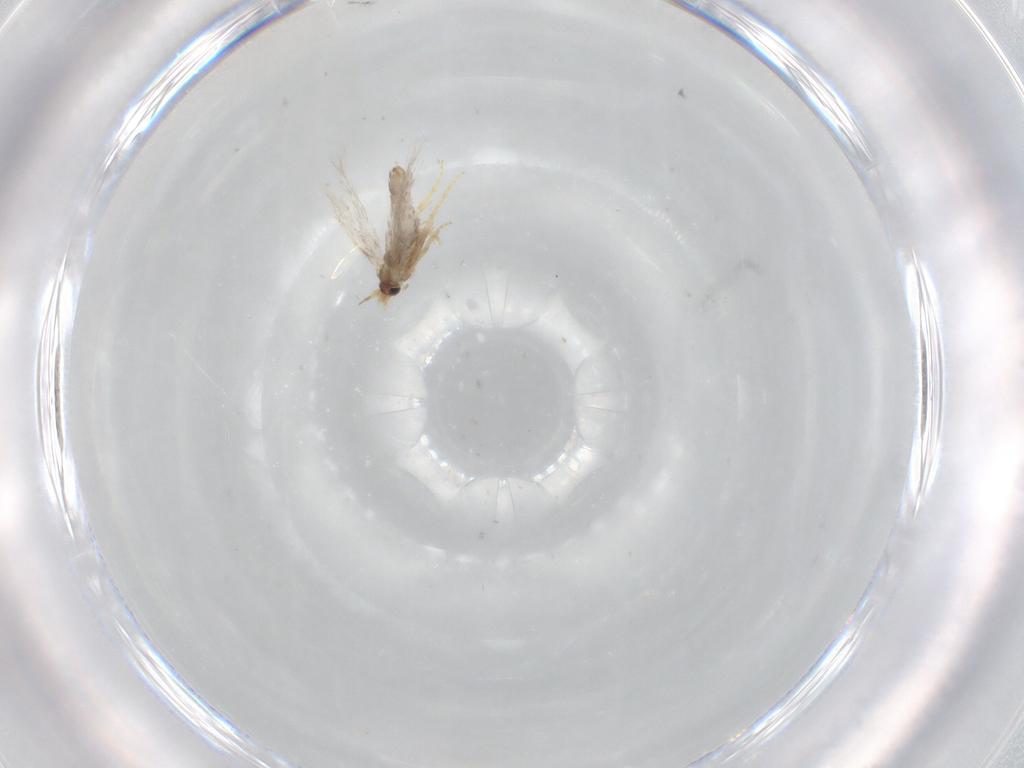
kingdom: Animalia
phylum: Arthropoda
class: Insecta
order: Lepidoptera
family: Nepticulidae
